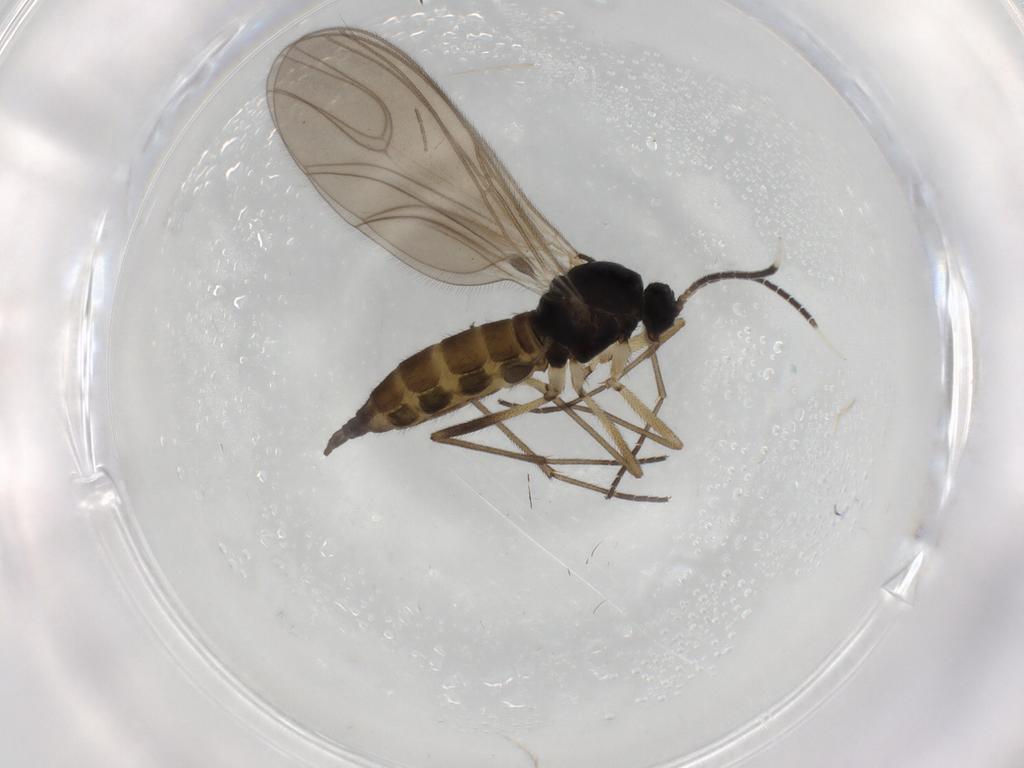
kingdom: Animalia
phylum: Arthropoda
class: Insecta
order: Diptera
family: Sciaridae
